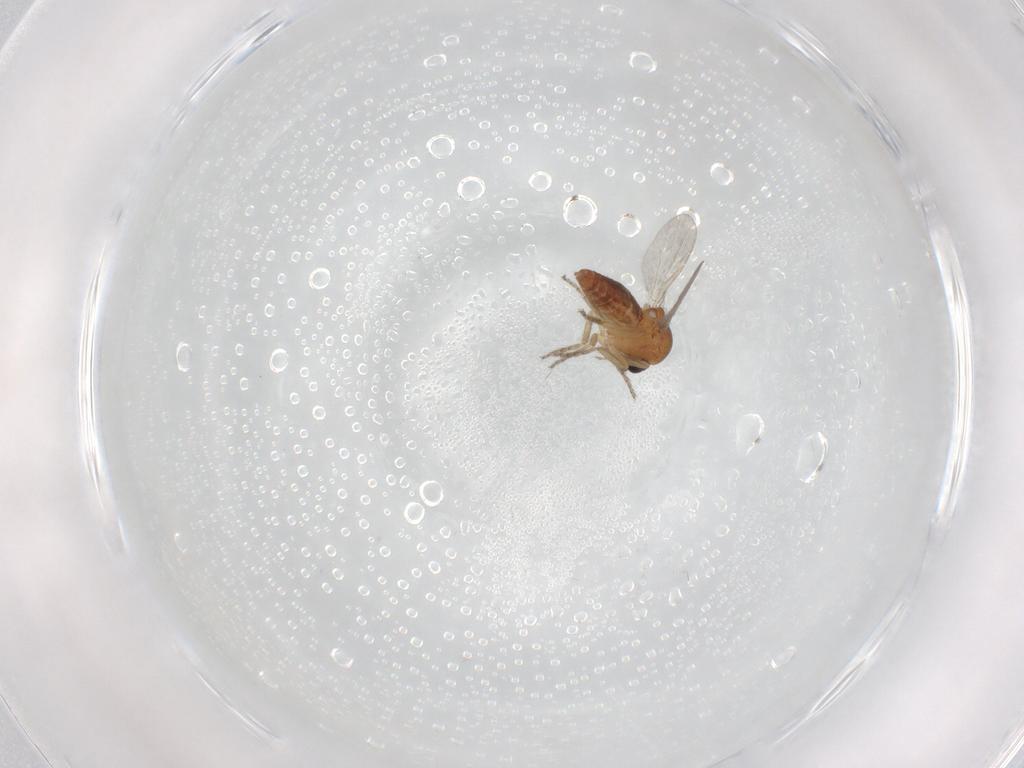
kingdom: Animalia
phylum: Arthropoda
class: Insecta
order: Diptera
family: Ceratopogonidae
